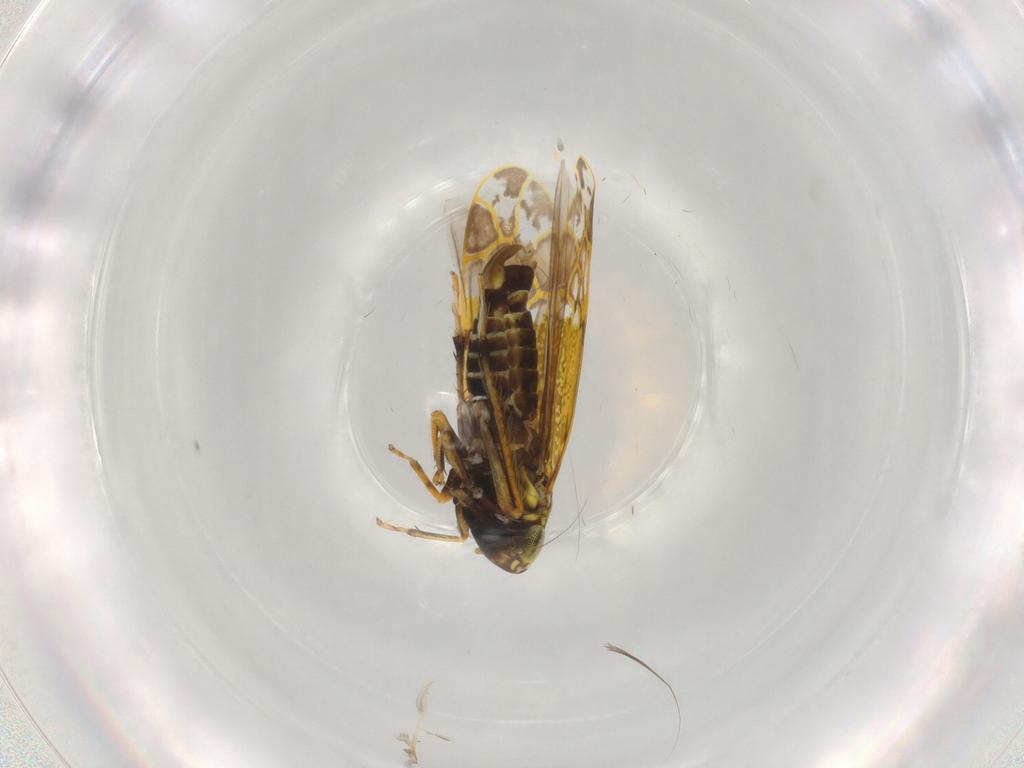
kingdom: Animalia
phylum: Arthropoda
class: Insecta
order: Hemiptera
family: Cicadellidae
